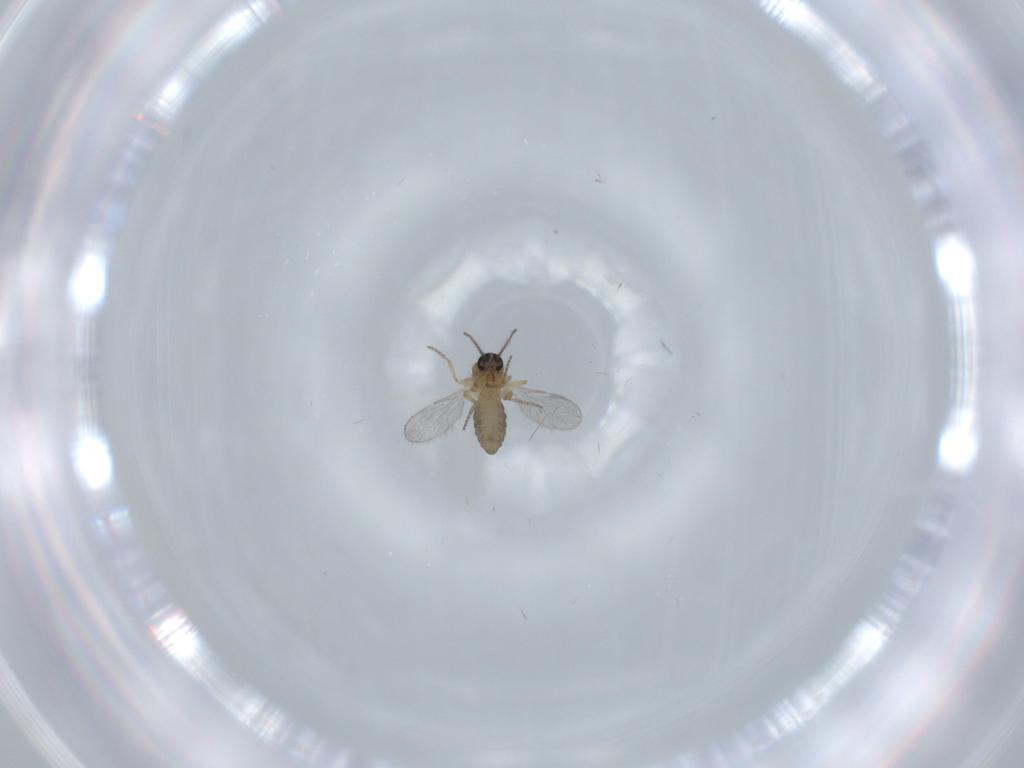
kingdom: Animalia
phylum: Arthropoda
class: Insecta
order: Diptera
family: Ceratopogonidae
